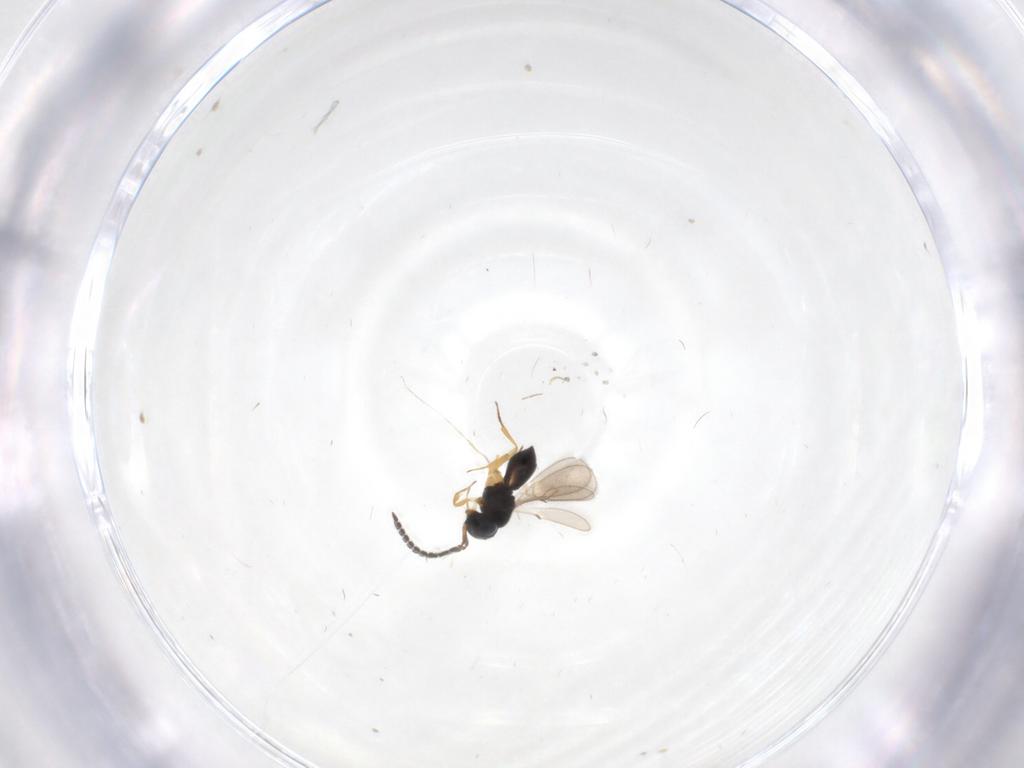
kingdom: Animalia
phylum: Arthropoda
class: Insecta
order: Hymenoptera
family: Scelionidae
